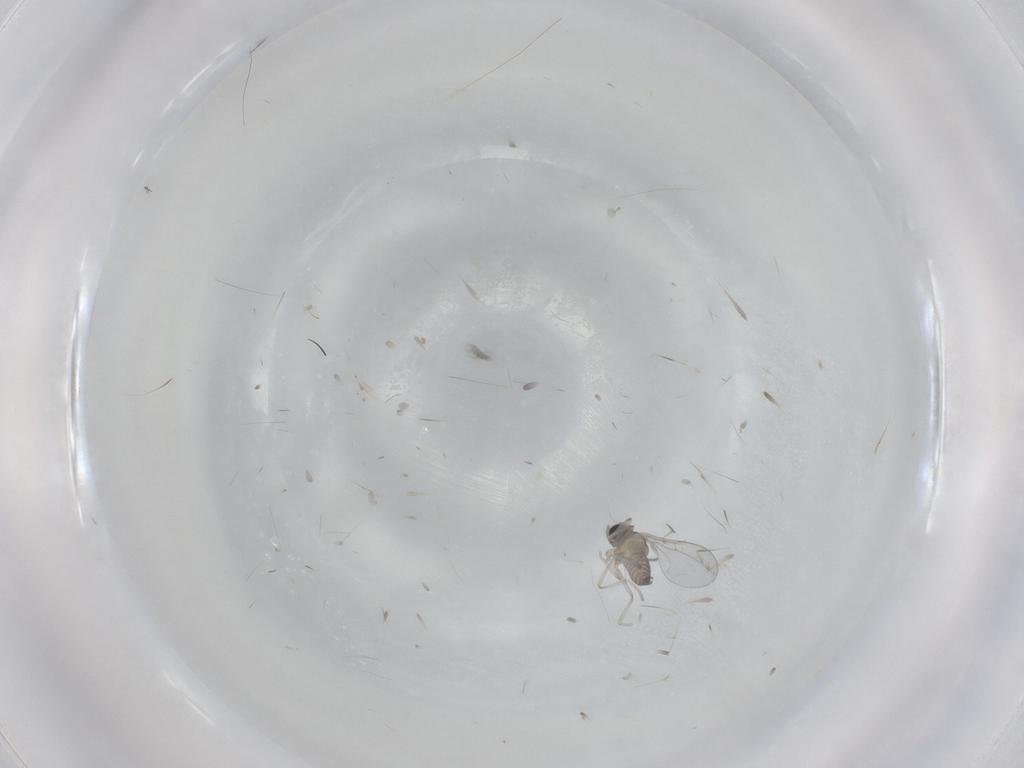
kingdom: Animalia
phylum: Arthropoda
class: Insecta
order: Diptera
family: Cecidomyiidae
